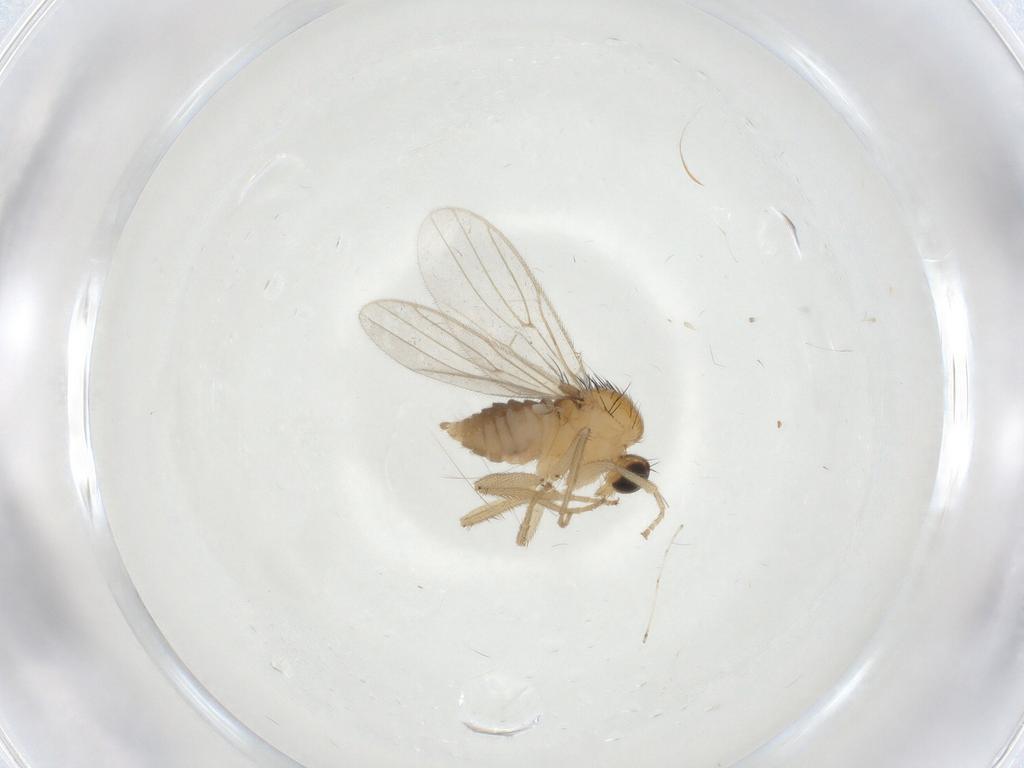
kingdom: Animalia
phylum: Arthropoda
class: Insecta
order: Diptera
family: Hybotidae
